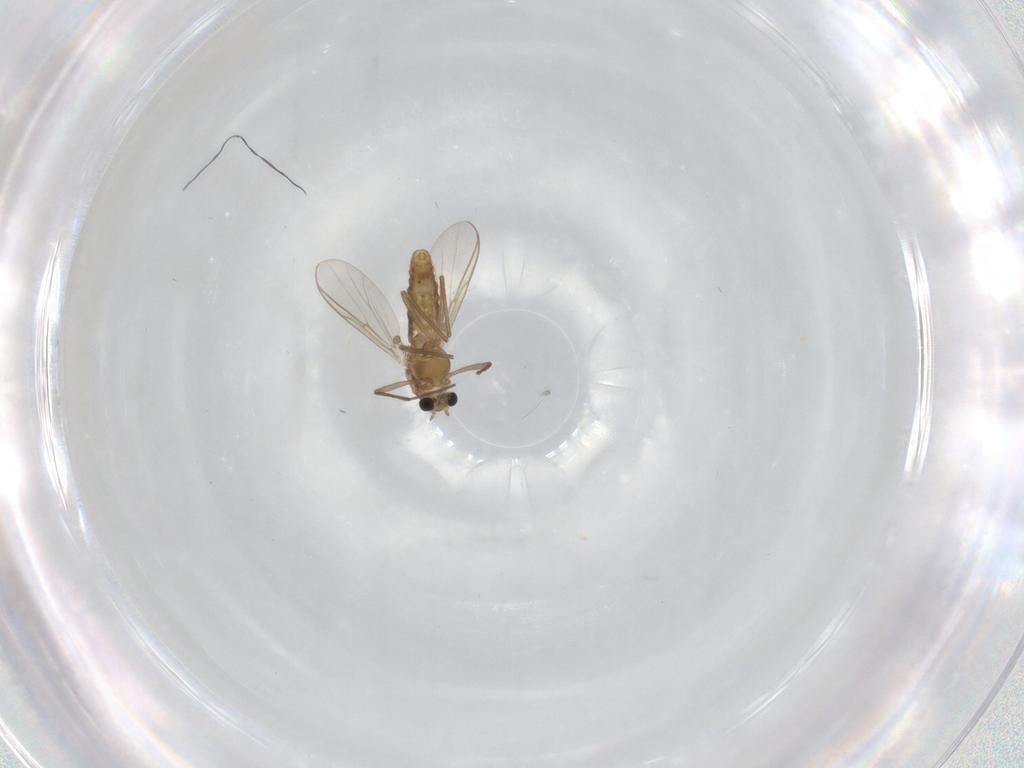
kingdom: Animalia
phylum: Arthropoda
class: Insecta
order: Diptera
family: Chironomidae
